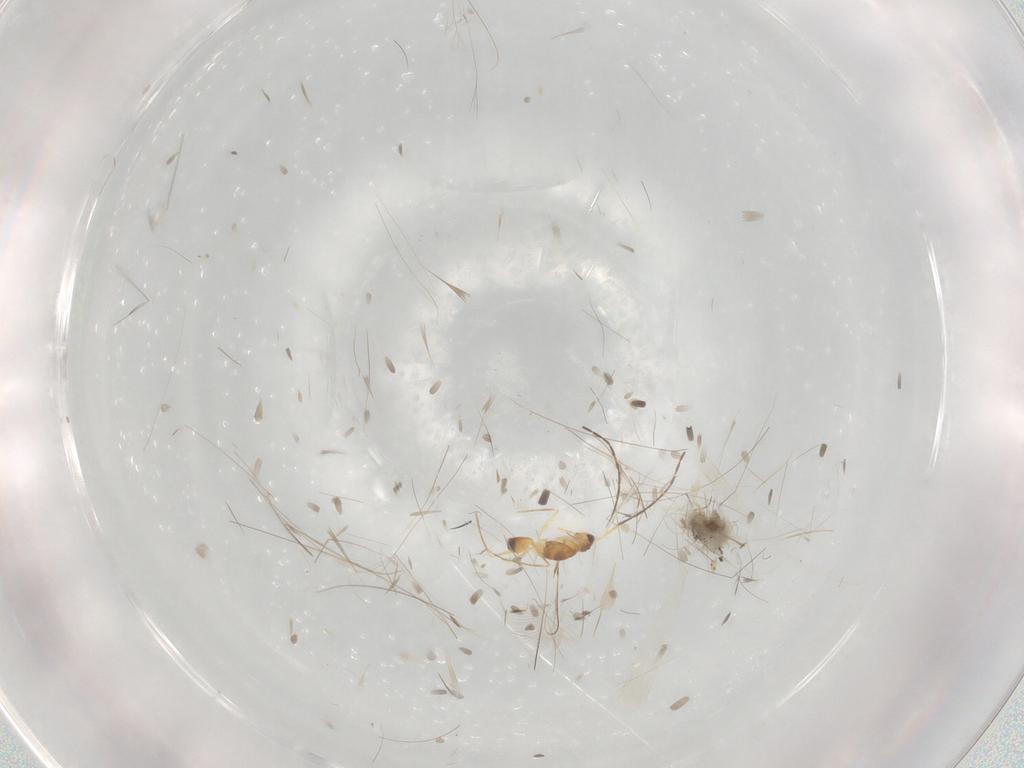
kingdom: Animalia
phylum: Arthropoda
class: Insecta
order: Hymenoptera
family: Mymaridae
